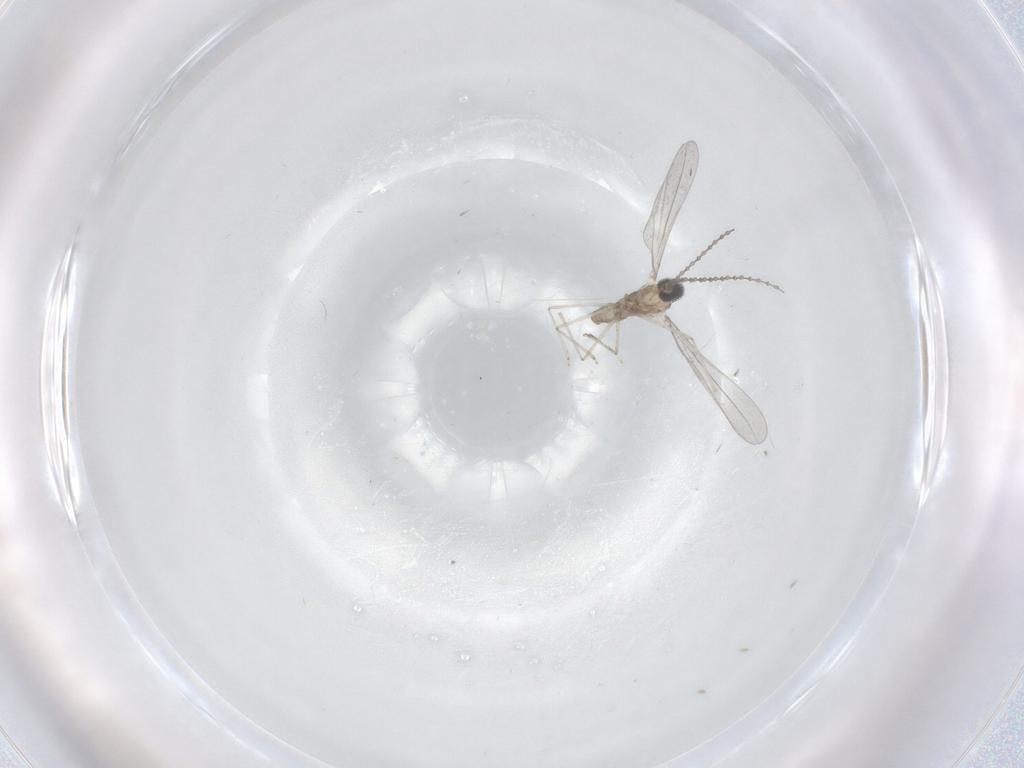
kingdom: Animalia
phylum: Arthropoda
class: Insecta
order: Diptera
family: Cecidomyiidae
